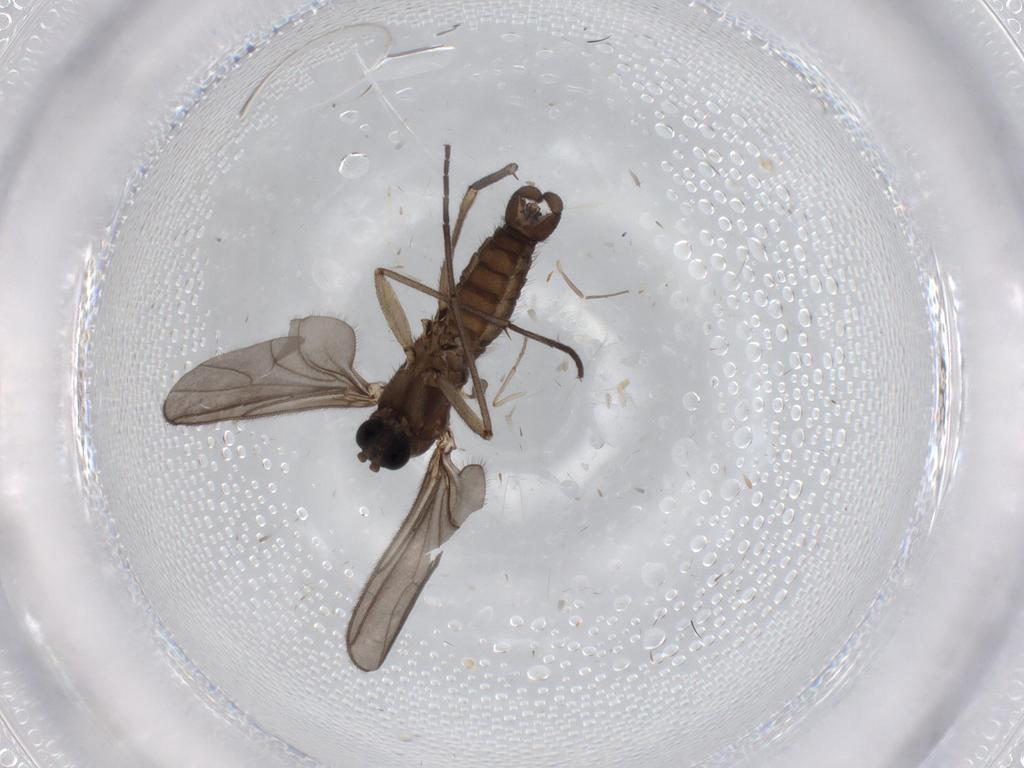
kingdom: Animalia
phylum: Arthropoda
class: Insecta
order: Diptera
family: Sciaridae
